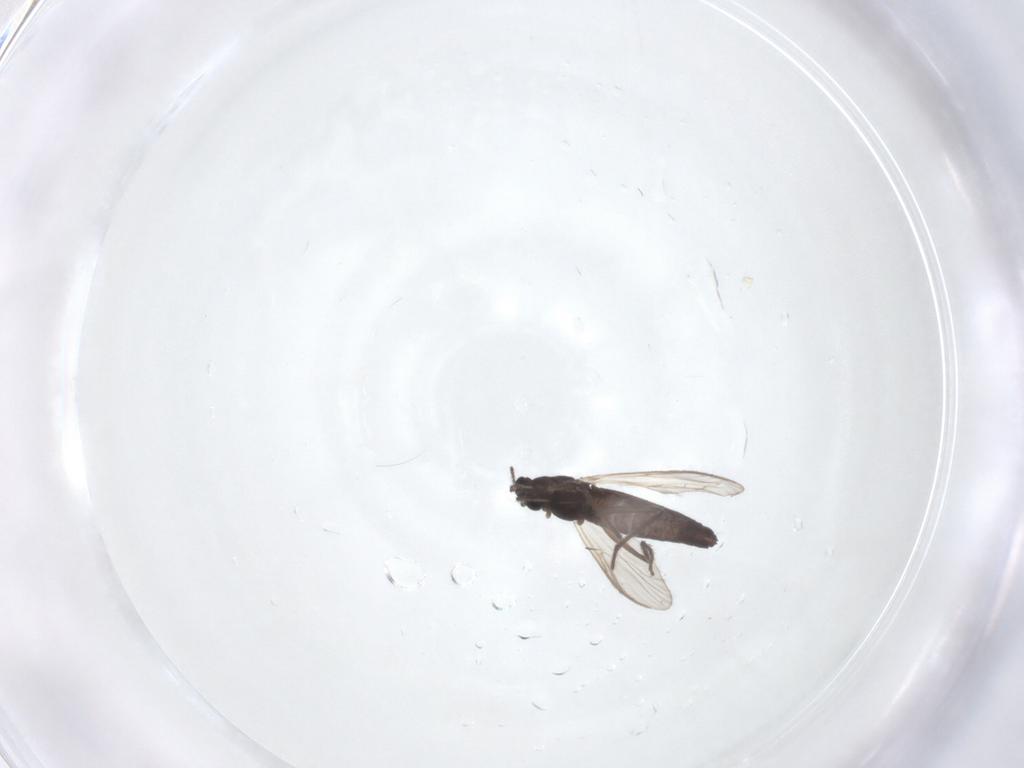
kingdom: Animalia
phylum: Arthropoda
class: Insecta
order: Diptera
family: Chironomidae
